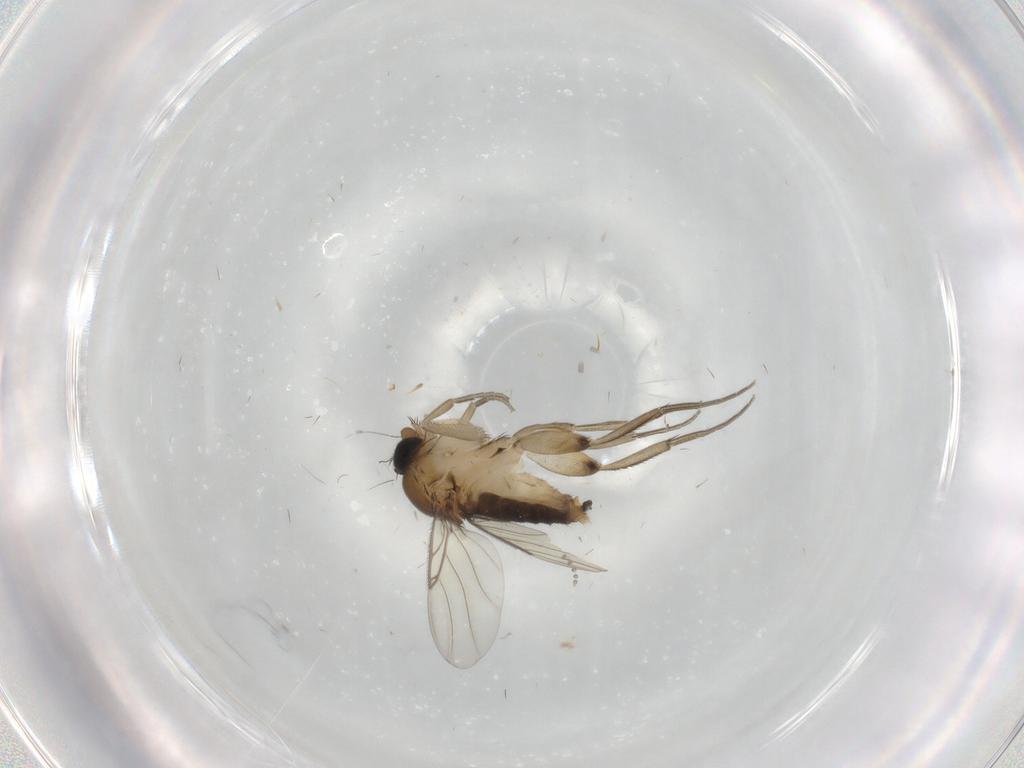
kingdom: Animalia
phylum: Arthropoda
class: Insecta
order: Diptera
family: Phoridae
